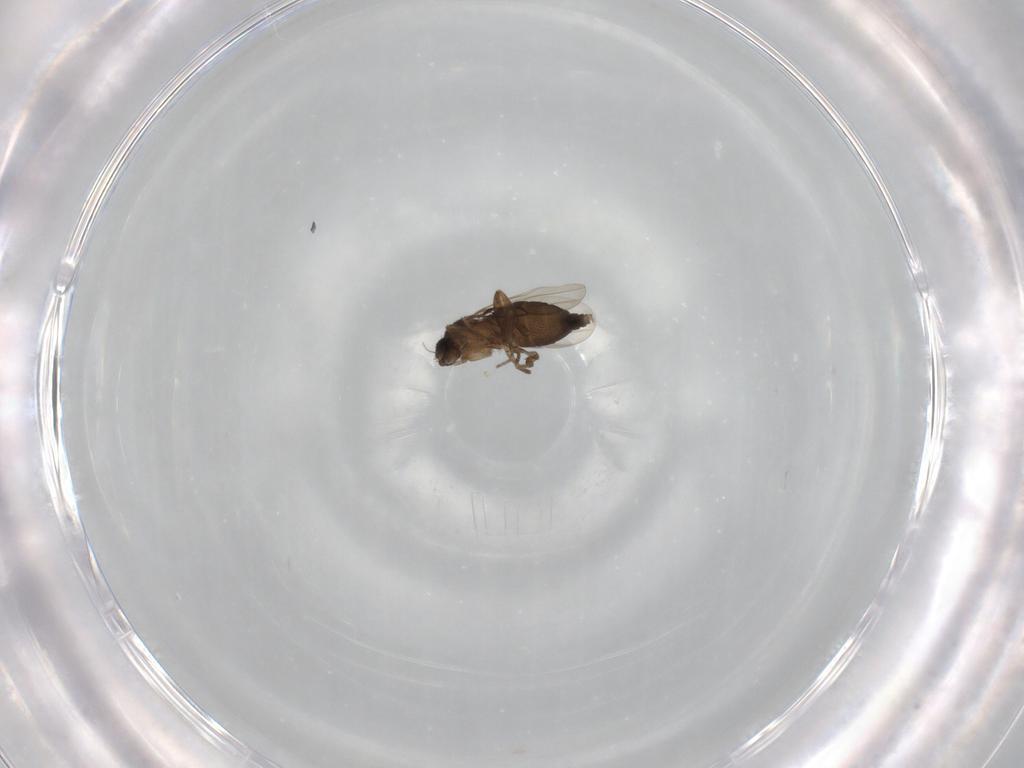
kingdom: Animalia
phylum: Arthropoda
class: Insecta
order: Diptera
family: Phoridae
